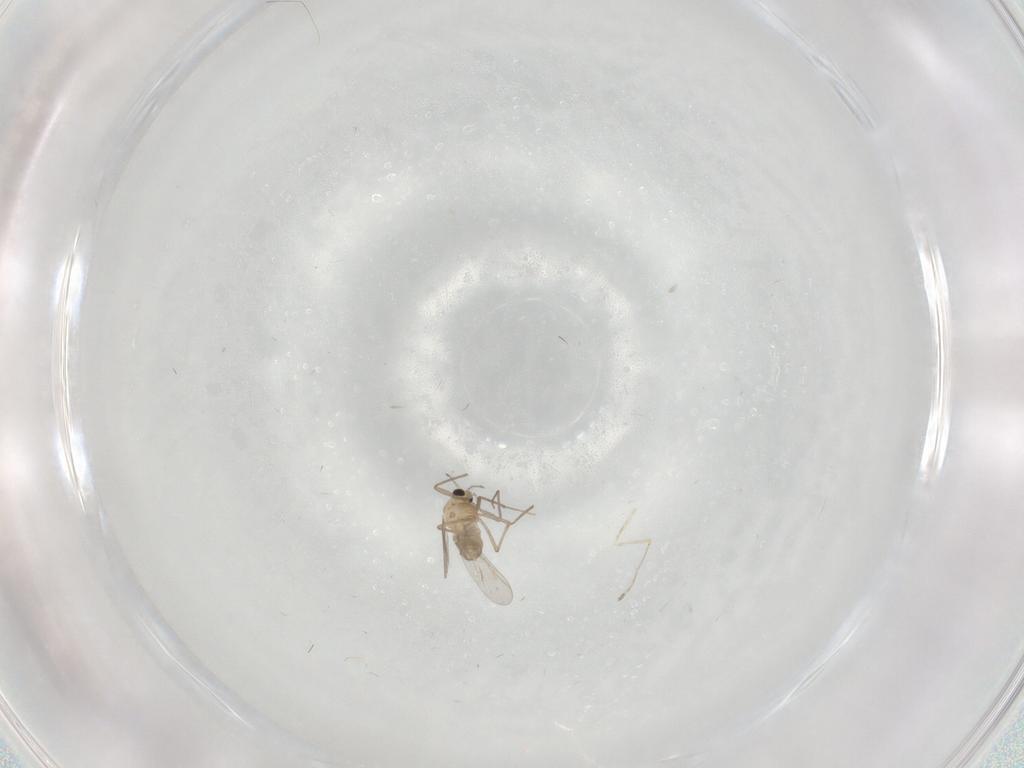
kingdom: Animalia
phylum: Arthropoda
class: Insecta
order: Diptera
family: Chironomidae
